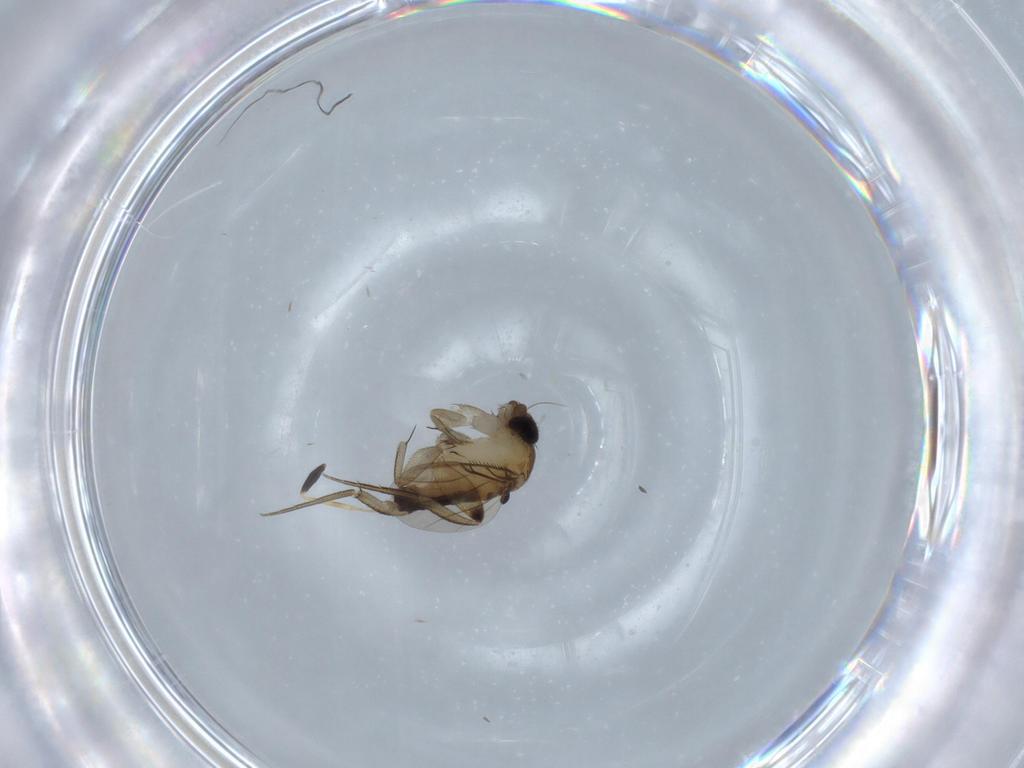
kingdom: Animalia
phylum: Arthropoda
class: Insecta
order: Diptera
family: Phoridae
